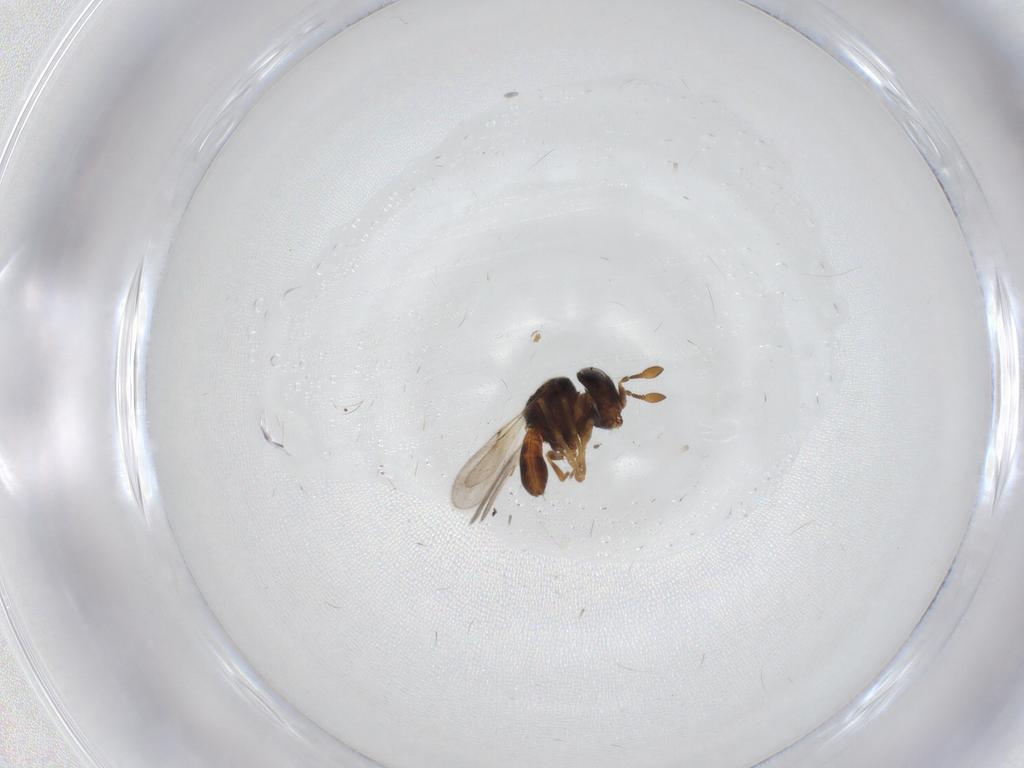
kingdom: Animalia
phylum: Arthropoda
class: Insecta
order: Hymenoptera
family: Scelionidae
